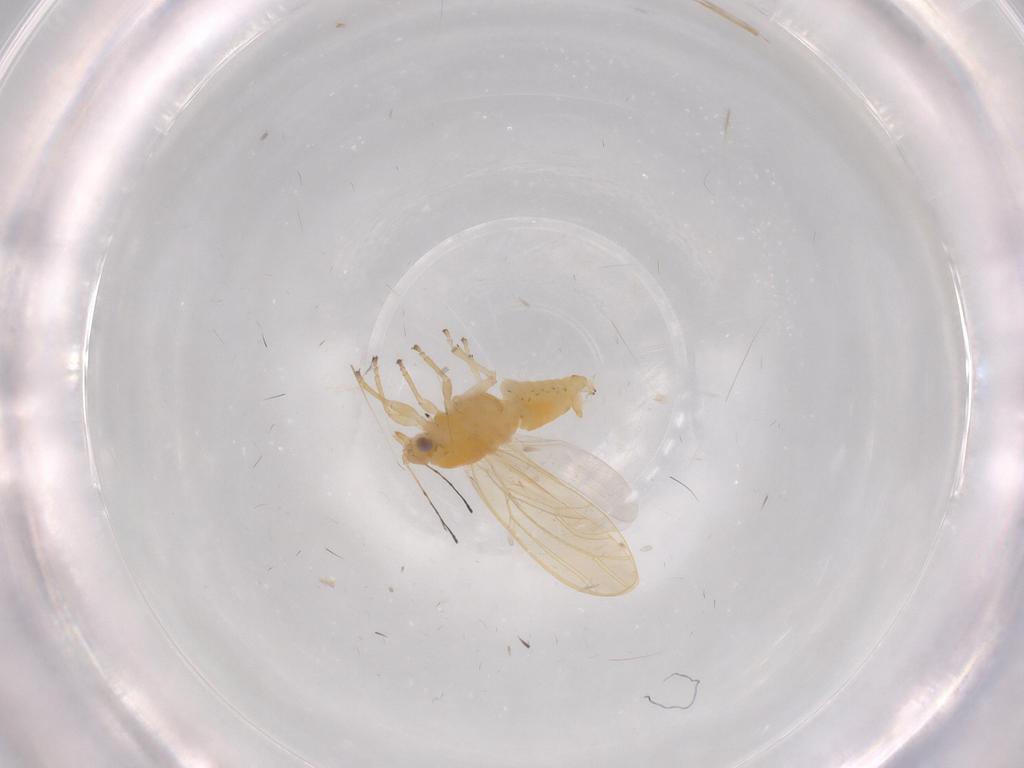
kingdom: Animalia
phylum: Arthropoda
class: Insecta
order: Hemiptera
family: Triozidae
